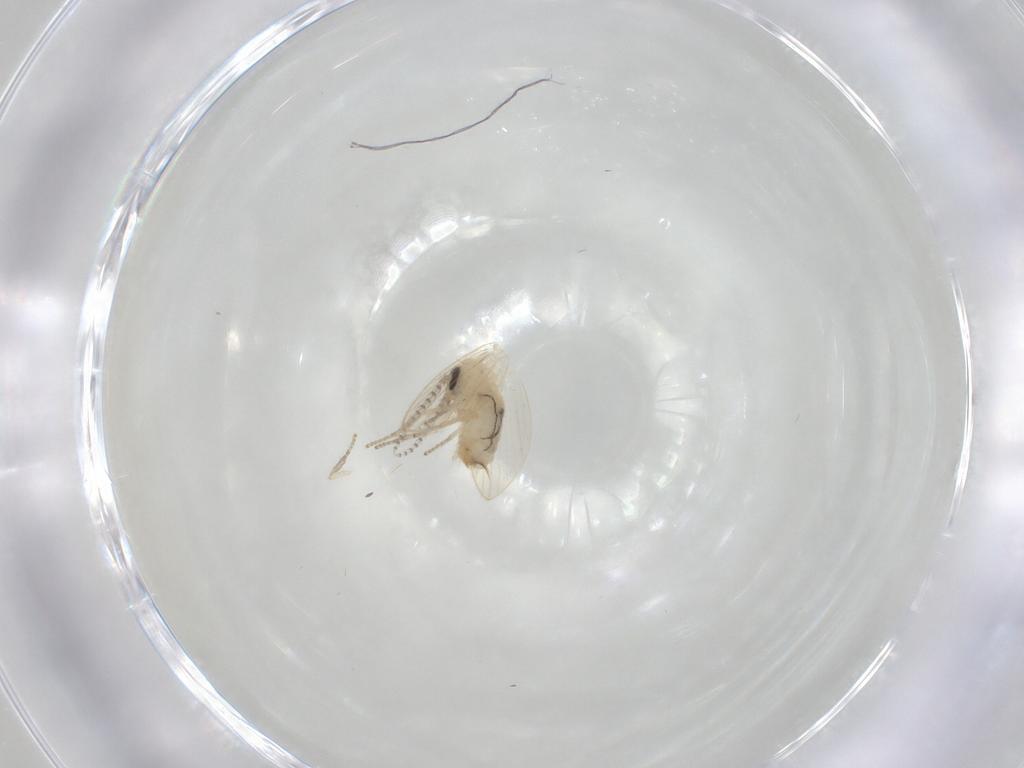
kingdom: Animalia
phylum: Arthropoda
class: Insecta
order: Diptera
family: Psychodidae
